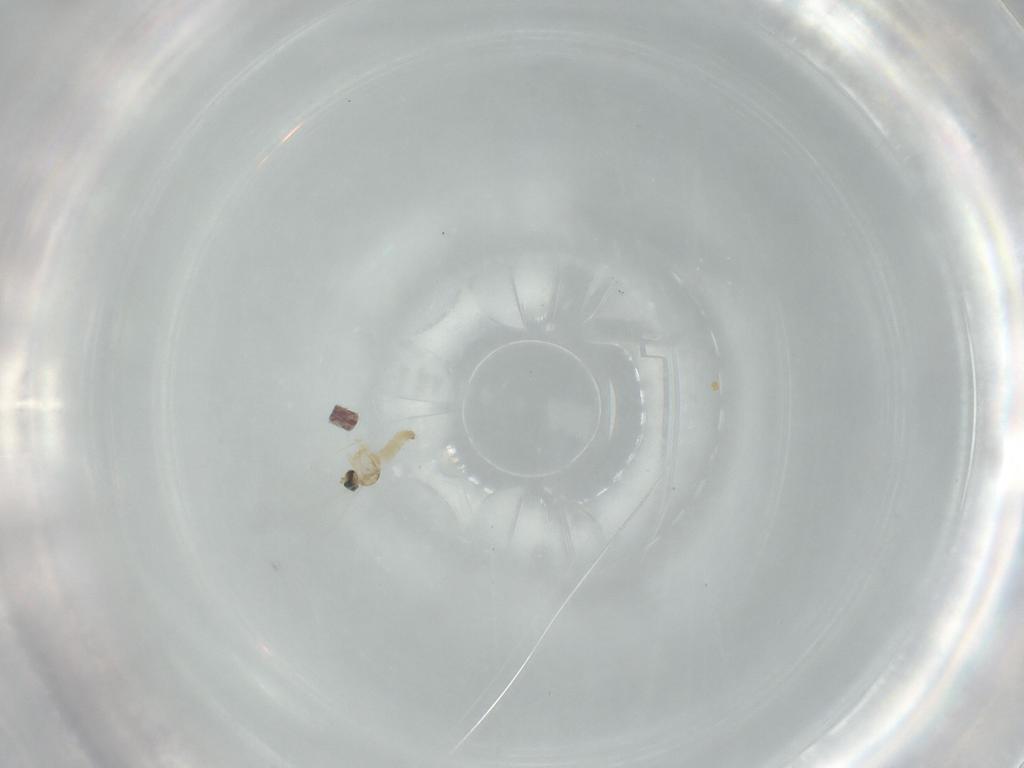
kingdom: Animalia
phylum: Arthropoda
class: Insecta
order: Diptera
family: Cecidomyiidae
